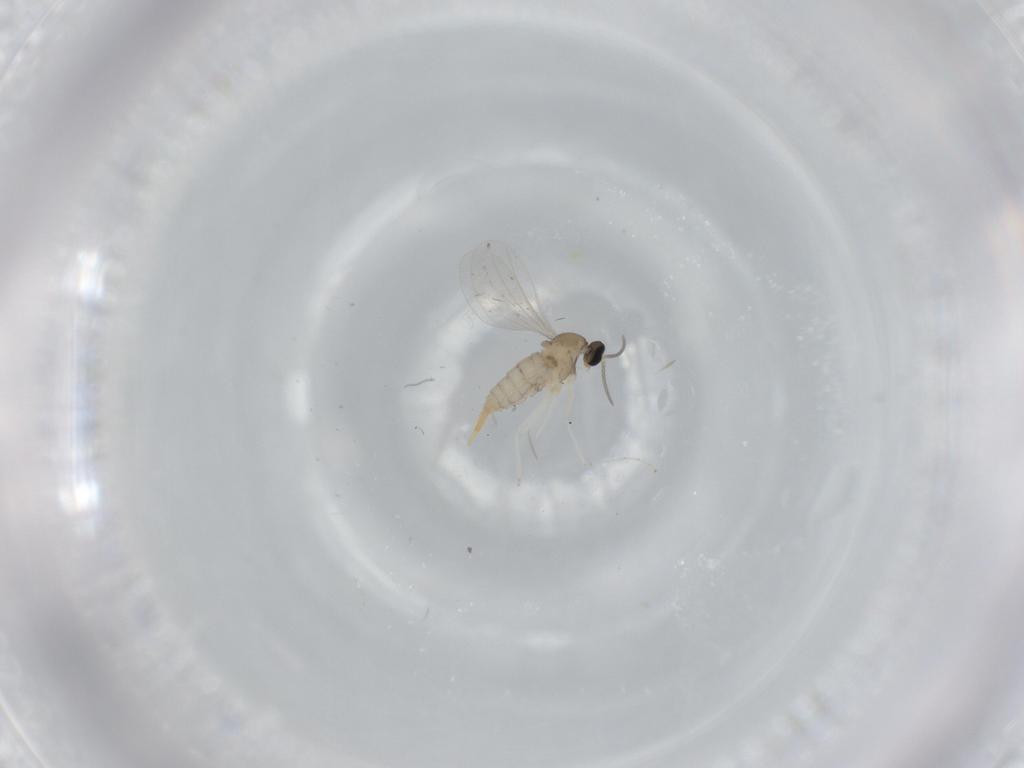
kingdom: Animalia
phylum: Arthropoda
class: Insecta
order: Diptera
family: Cecidomyiidae
